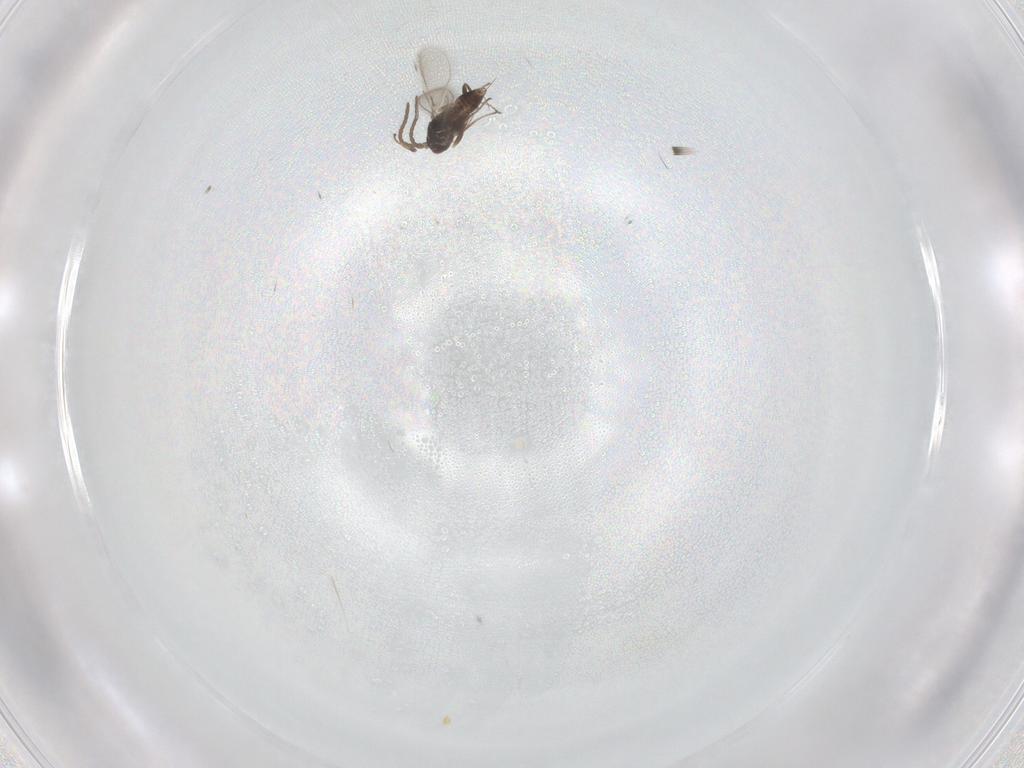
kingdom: Animalia
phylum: Arthropoda
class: Insecta
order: Hymenoptera
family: Mymaridae
